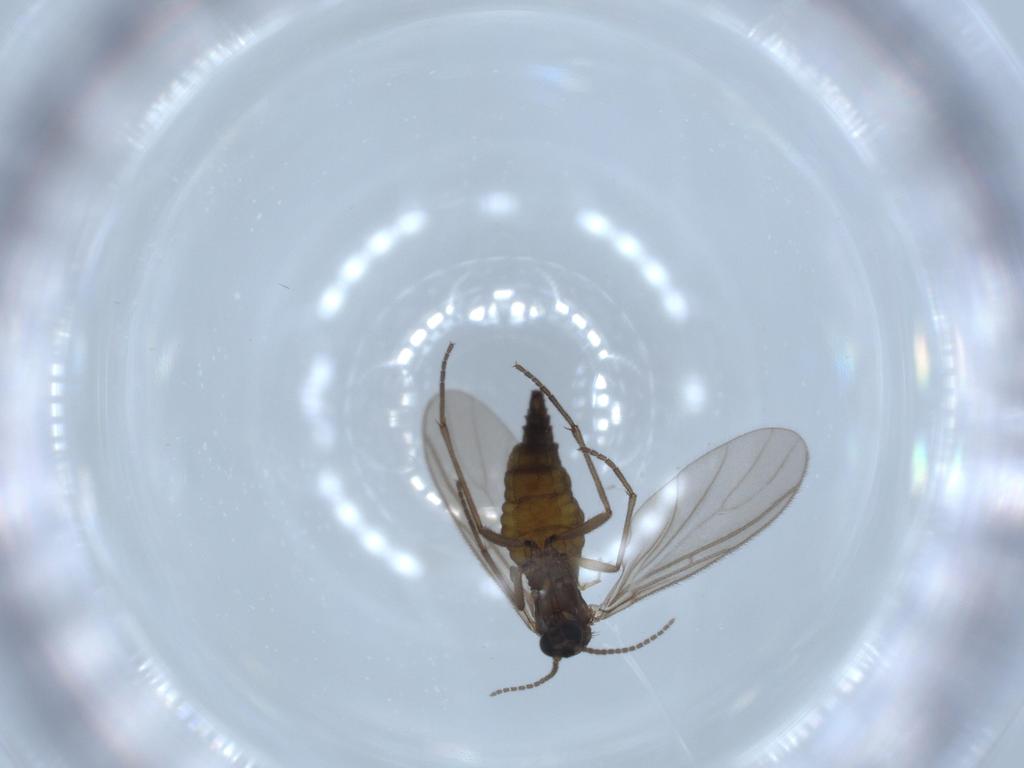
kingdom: Animalia
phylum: Arthropoda
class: Insecta
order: Diptera
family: Sciaridae
